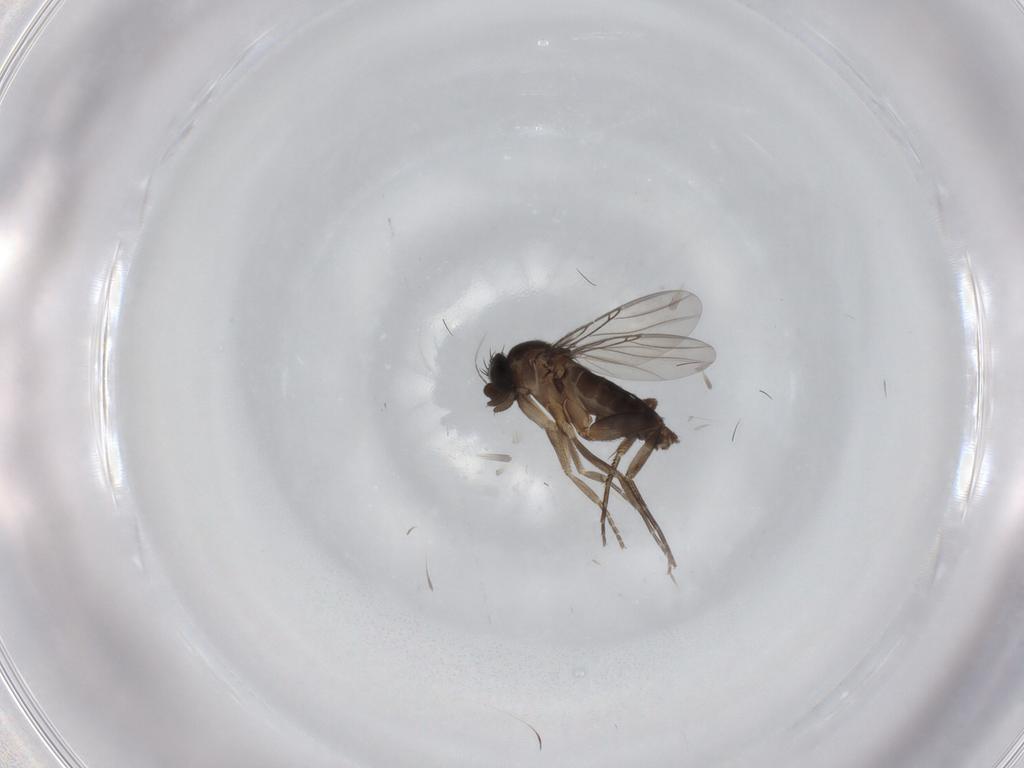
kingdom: Animalia
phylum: Arthropoda
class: Insecta
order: Diptera
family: Phoridae
